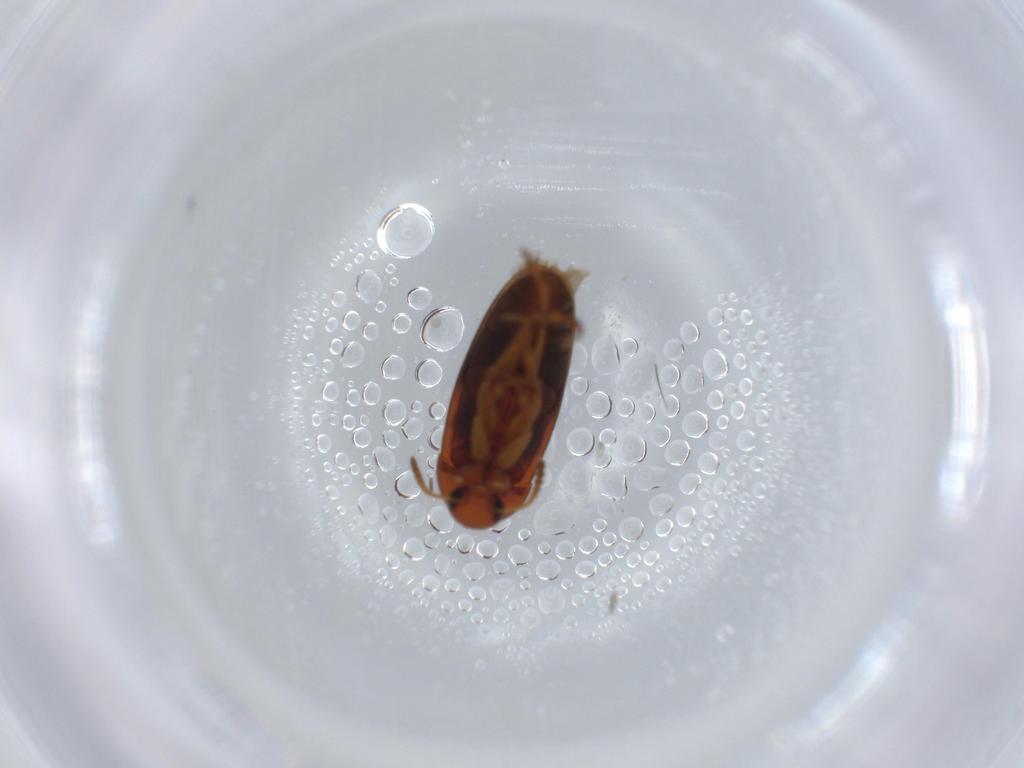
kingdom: Animalia
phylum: Arthropoda
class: Insecta
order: Coleoptera
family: Scraptiidae
